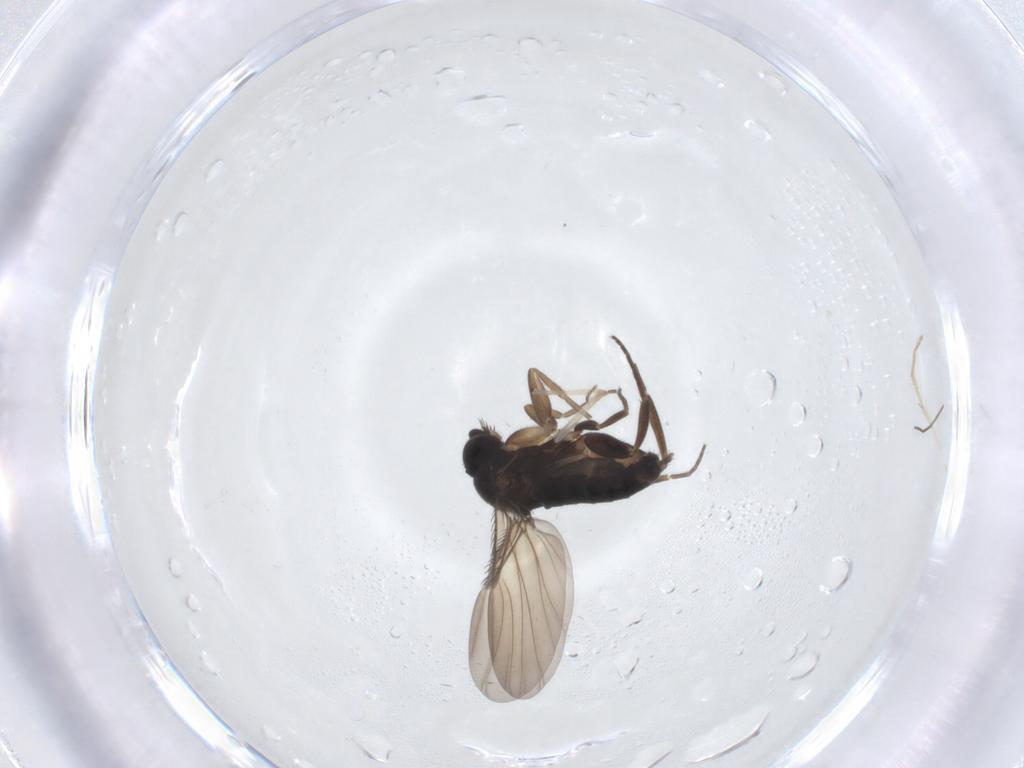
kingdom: Animalia
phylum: Arthropoda
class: Insecta
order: Diptera
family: Phoridae
